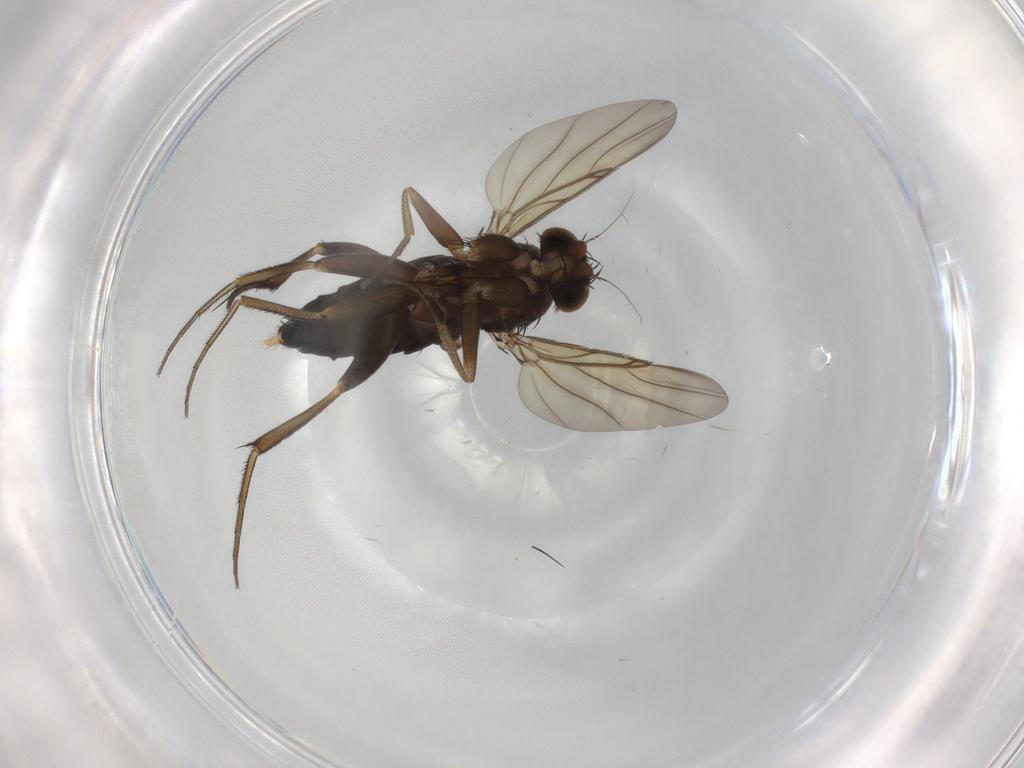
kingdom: Animalia
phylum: Arthropoda
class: Insecta
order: Diptera
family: Phoridae
